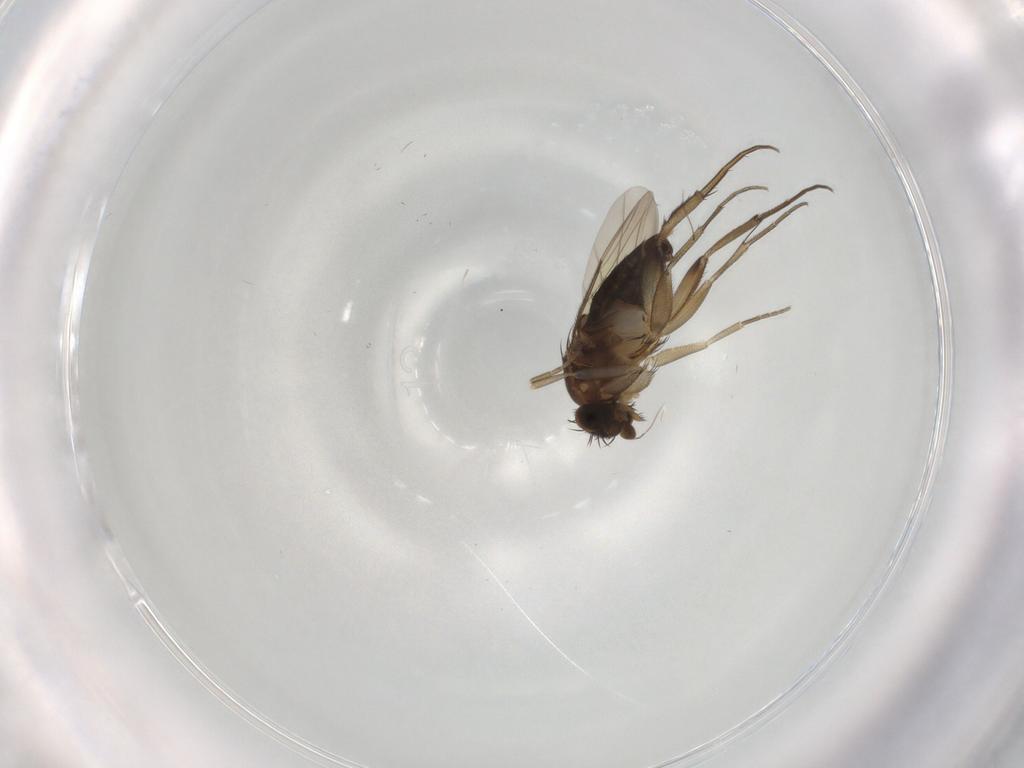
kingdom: Animalia
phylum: Arthropoda
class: Insecta
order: Diptera
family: Phoridae
